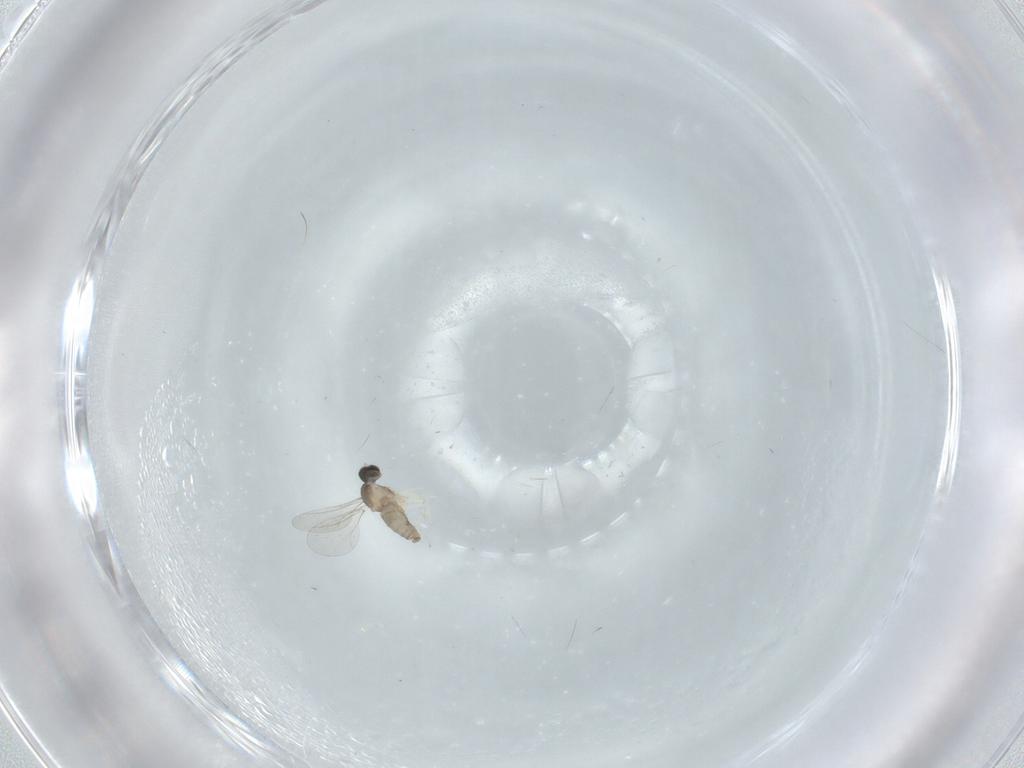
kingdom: Animalia
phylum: Arthropoda
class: Insecta
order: Diptera
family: Cecidomyiidae
